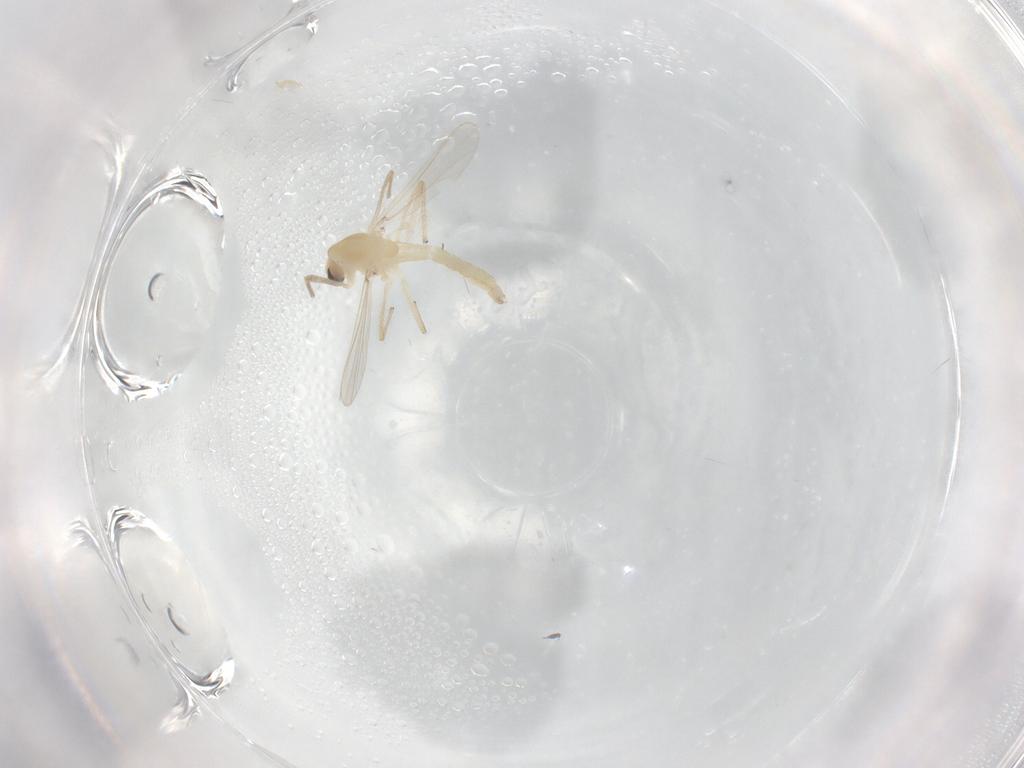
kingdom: Animalia
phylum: Arthropoda
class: Insecta
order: Diptera
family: Chironomidae
